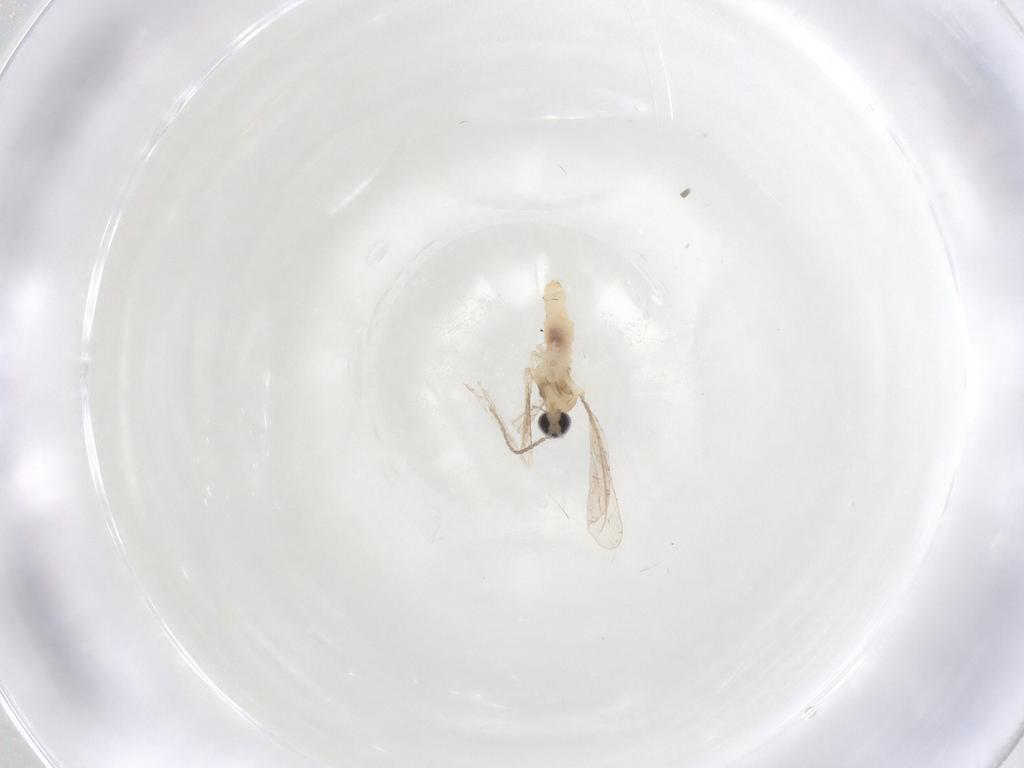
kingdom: Animalia
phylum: Arthropoda
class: Insecta
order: Diptera
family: Cecidomyiidae
